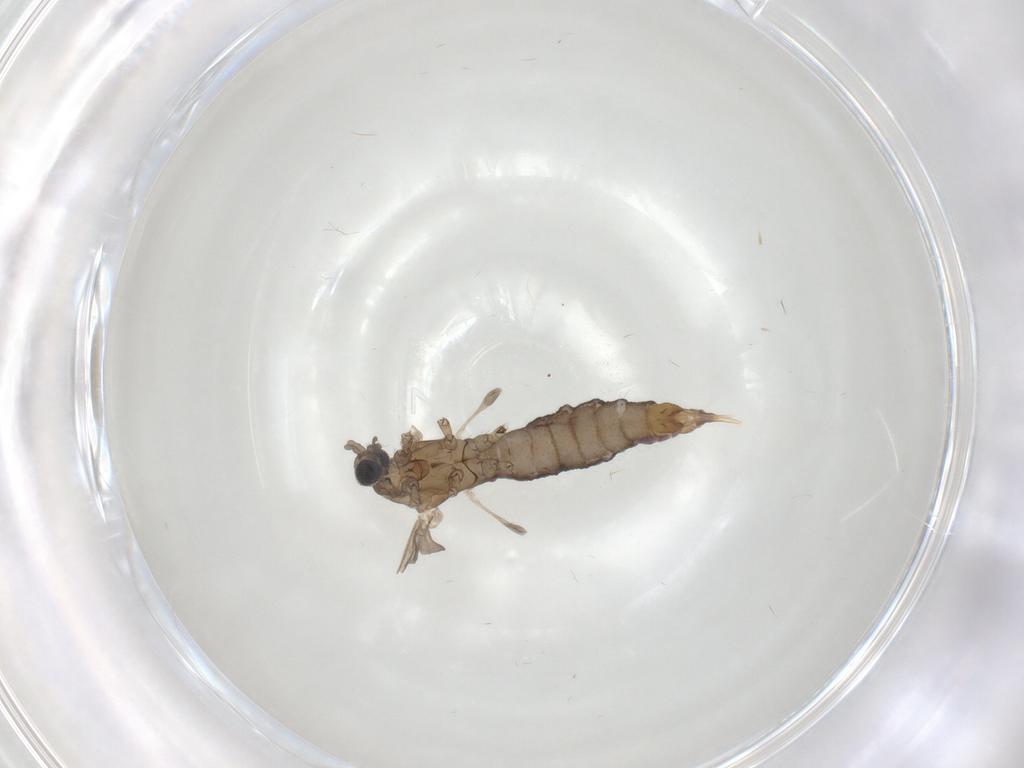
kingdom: Animalia
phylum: Arthropoda
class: Insecta
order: Diptera
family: Limoniidae
